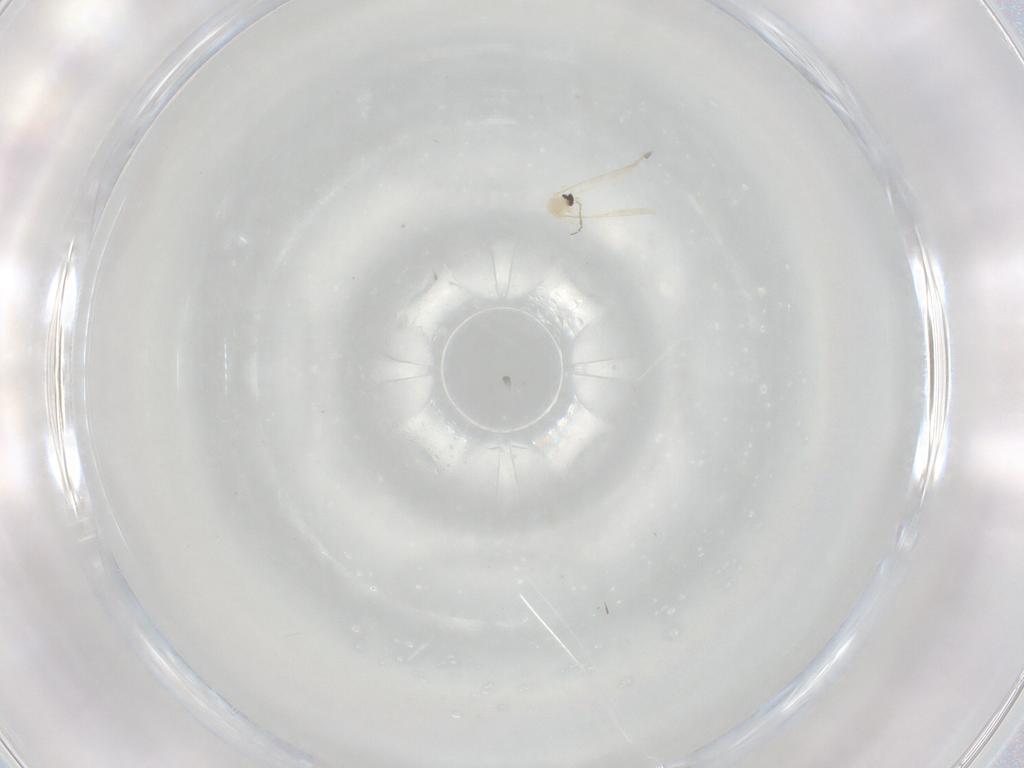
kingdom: Animalia
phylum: Arthropoda
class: Insecta
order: Diptera
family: Cecidomyiidae
